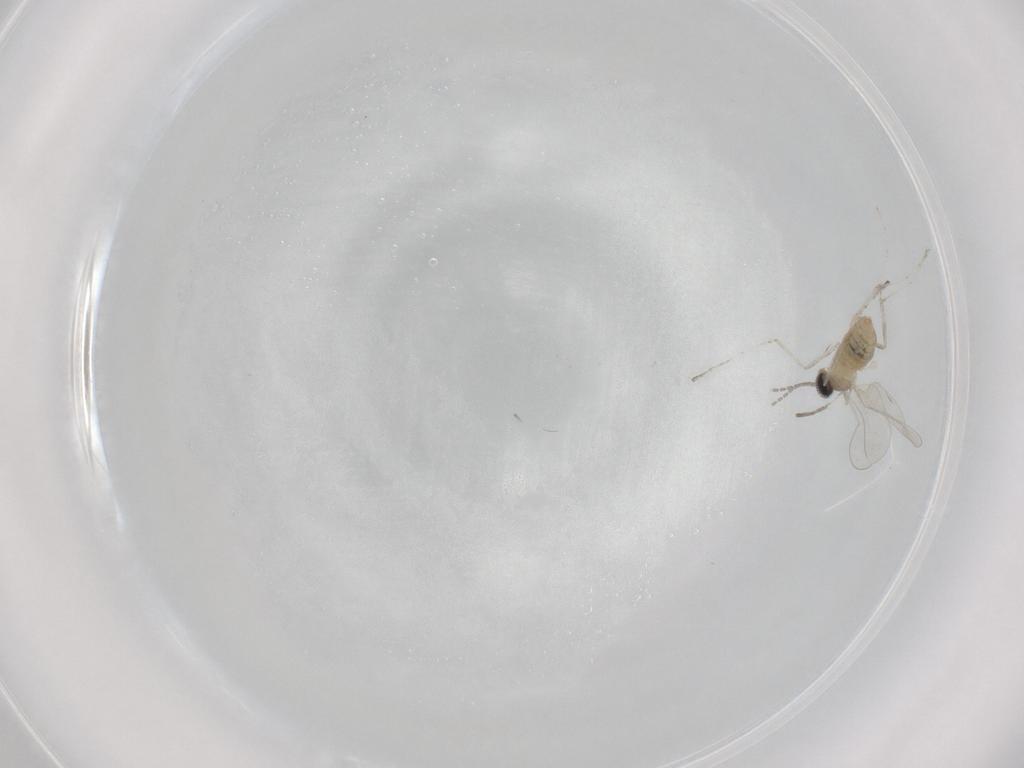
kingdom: Animalia
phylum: Arthropoda
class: Insecta
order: Diptera
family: Cecidomyiidae
